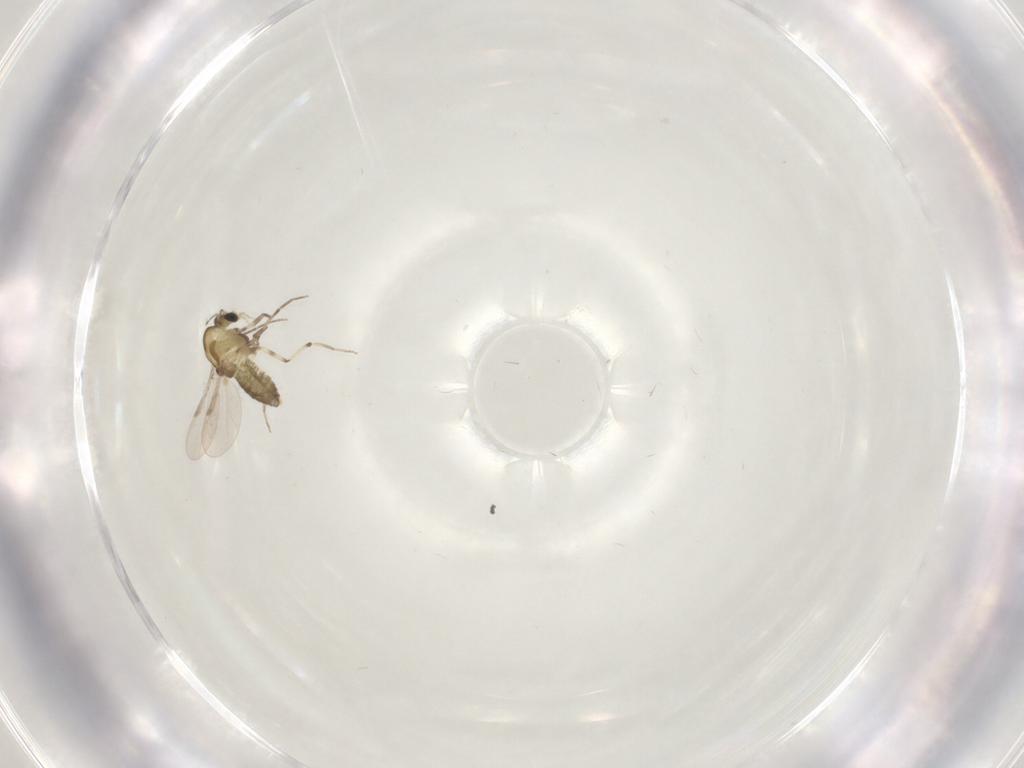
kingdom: Animalia
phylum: Arthropoda
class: Insecta
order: Diptera
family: Chironomidae
